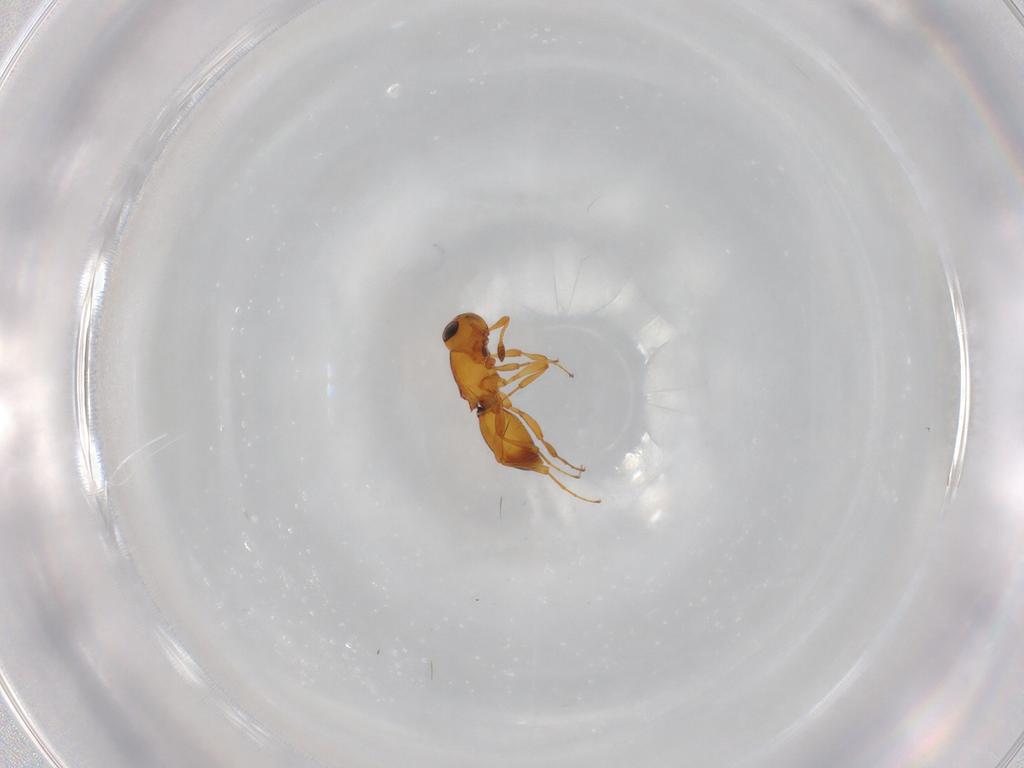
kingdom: Animalia
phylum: Arthropoda
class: Insecta
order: Hymenoptera
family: Platygastridae
